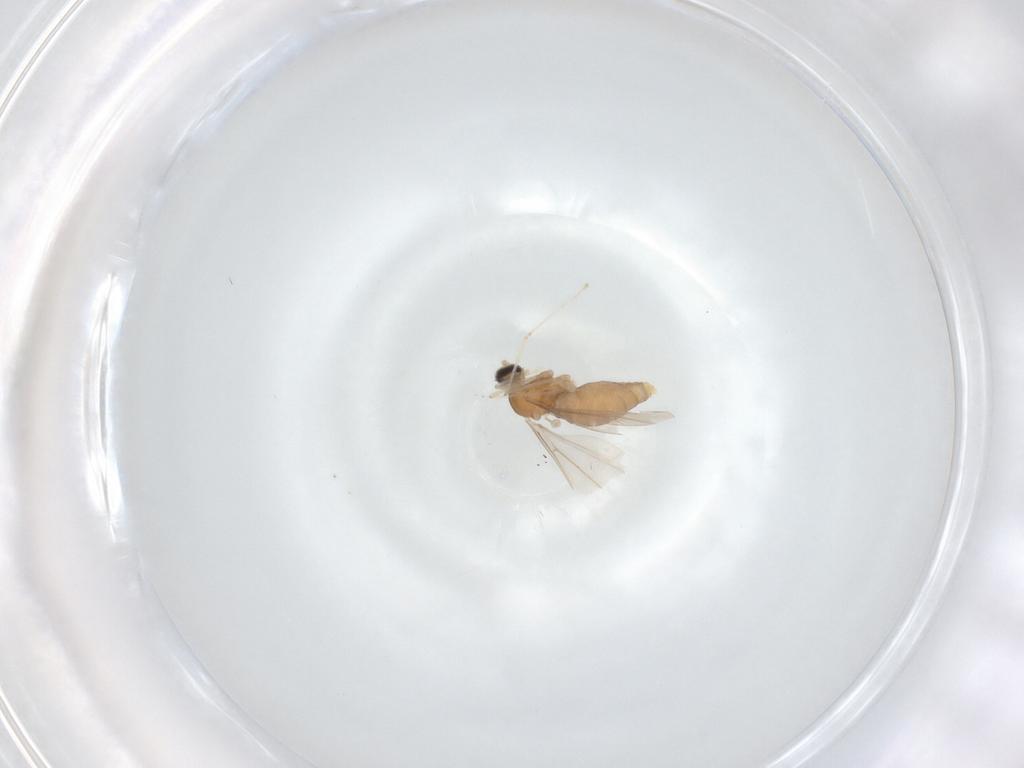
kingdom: Animalia
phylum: Arthropoda
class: Insecta
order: Diptera
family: Cecidomyiidae
